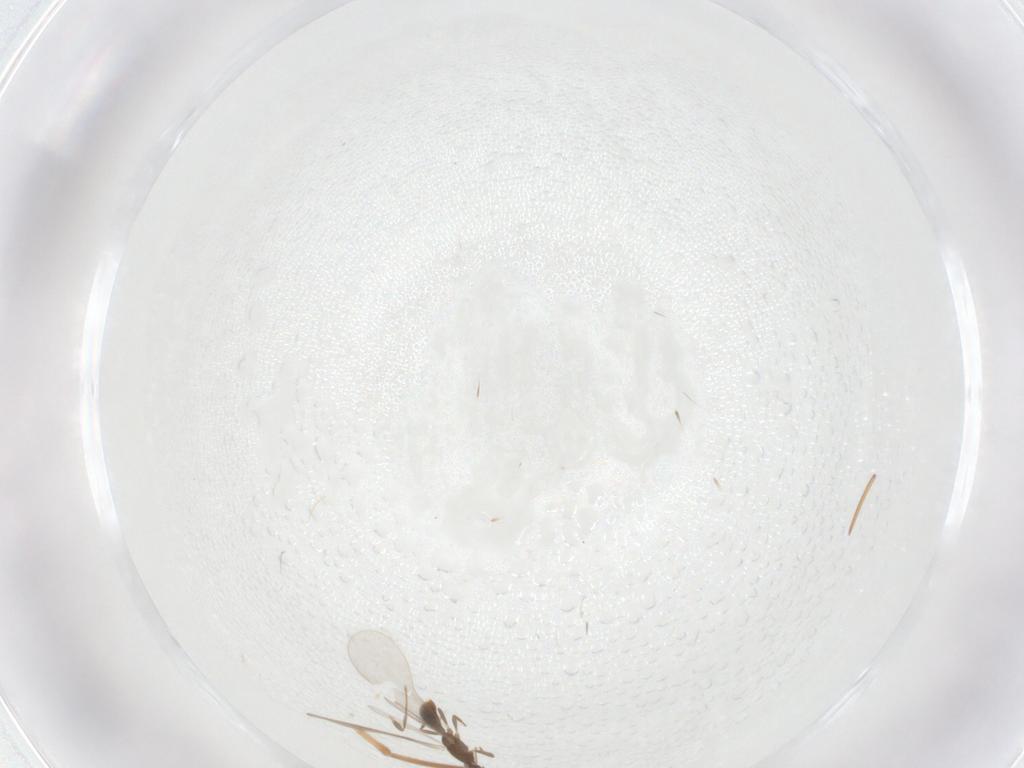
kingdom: Animalia
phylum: Arthropoda
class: Insecta
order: Hymenoptera
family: Formicidae
